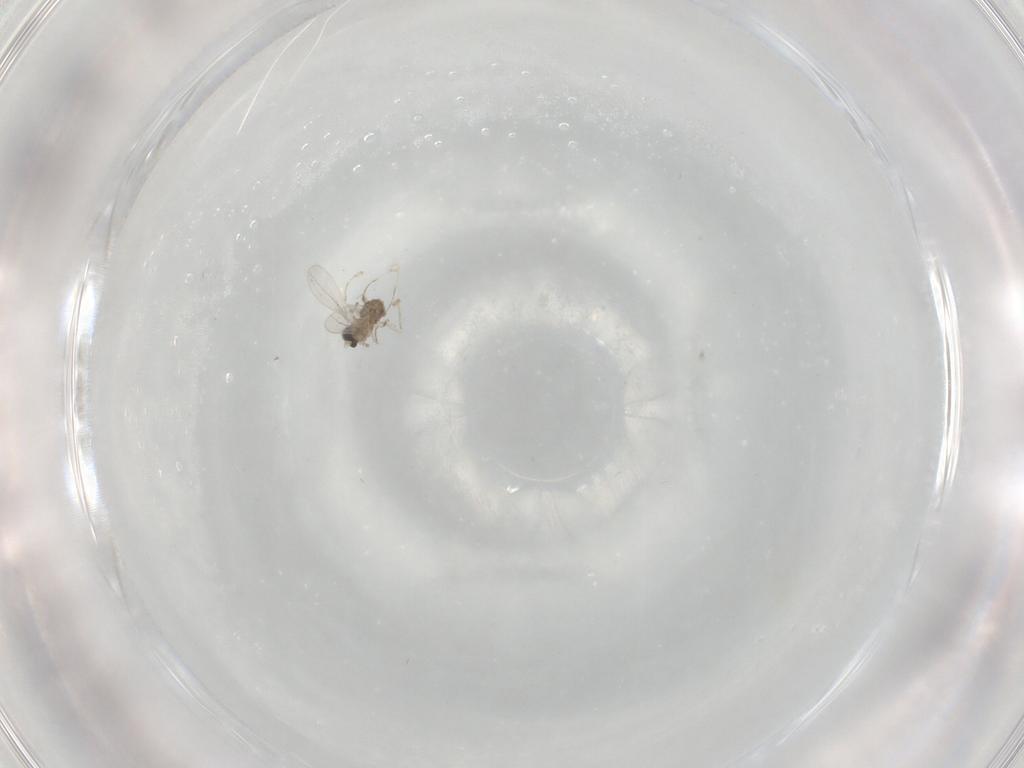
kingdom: Animalia
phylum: Arthropoda
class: Insecta
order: Diptera
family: Cecidomyiidae
